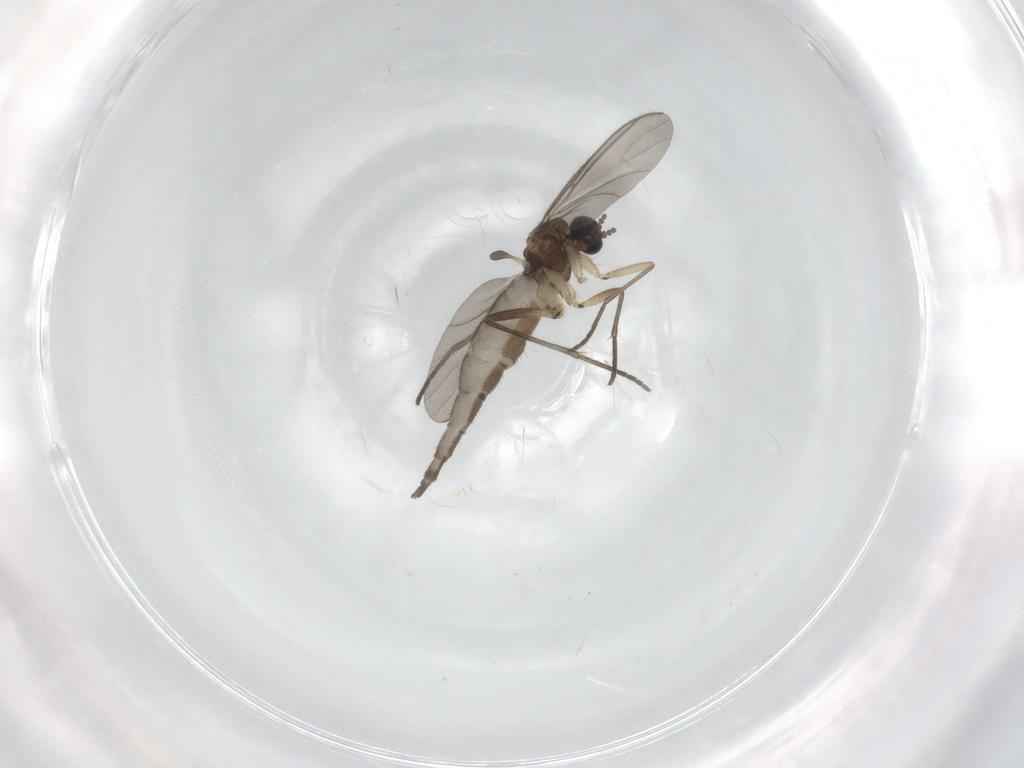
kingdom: Animalia
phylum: Arthropoda
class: Insecta
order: Diptera
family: Sciaridae
